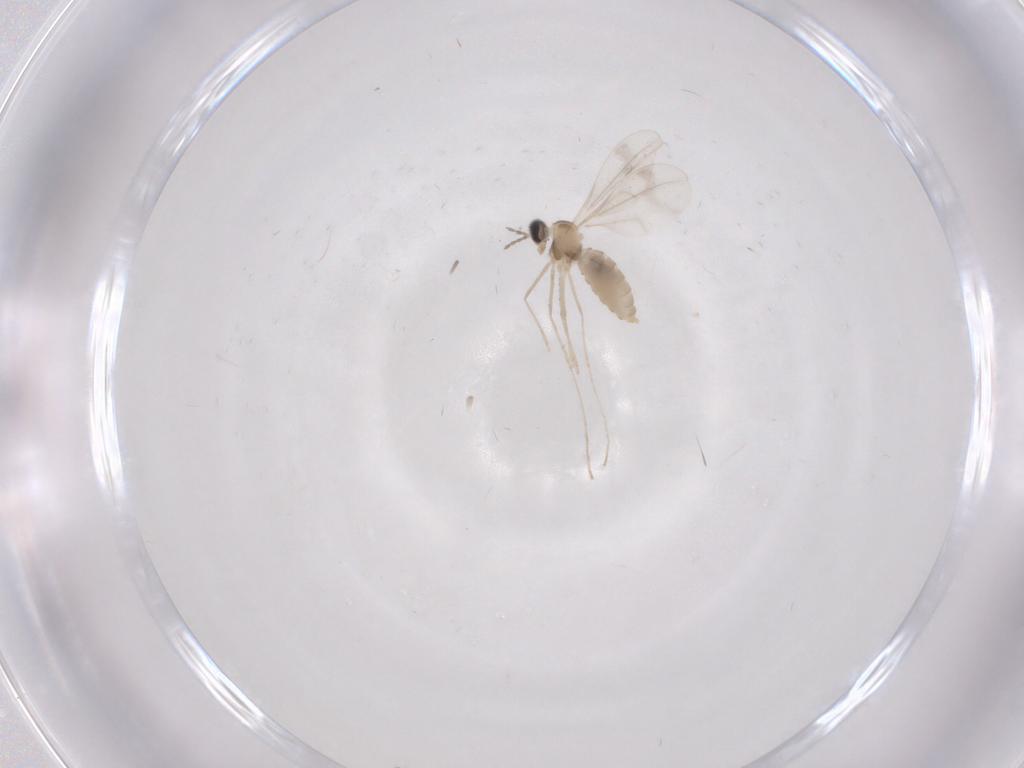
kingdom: Animalia
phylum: Arthropoda
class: Insecta
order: Diptera
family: Cecidomyiidae
